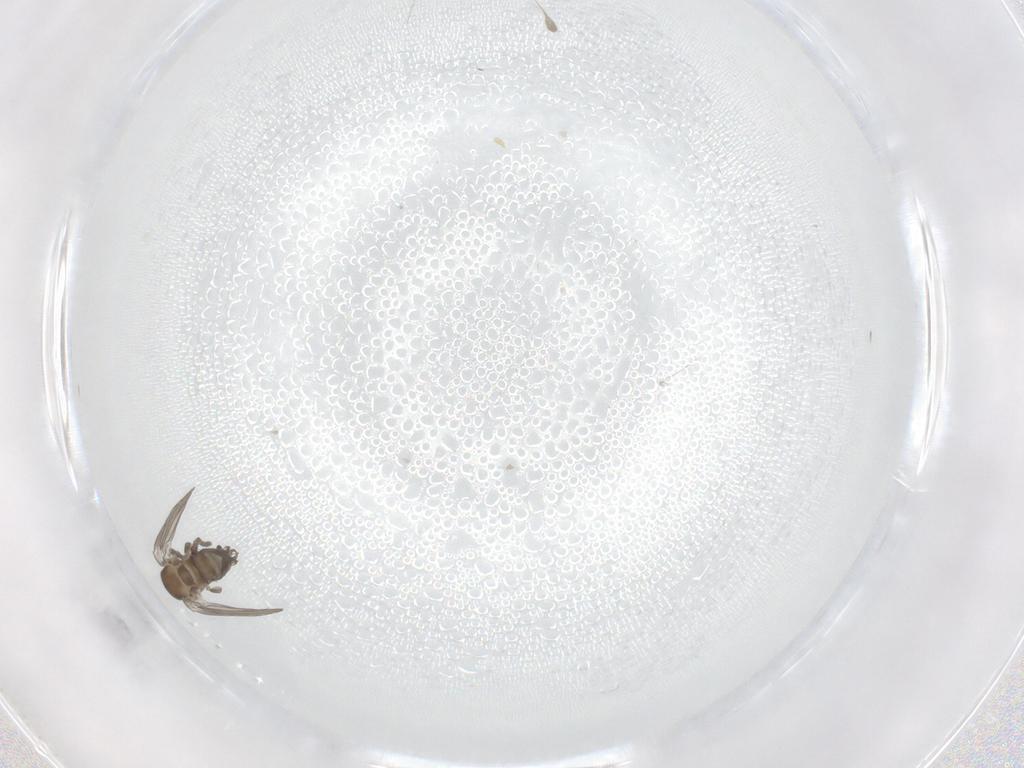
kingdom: Animalia
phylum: Arthropoda
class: Insecta
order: Diptera
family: Psychodidae
